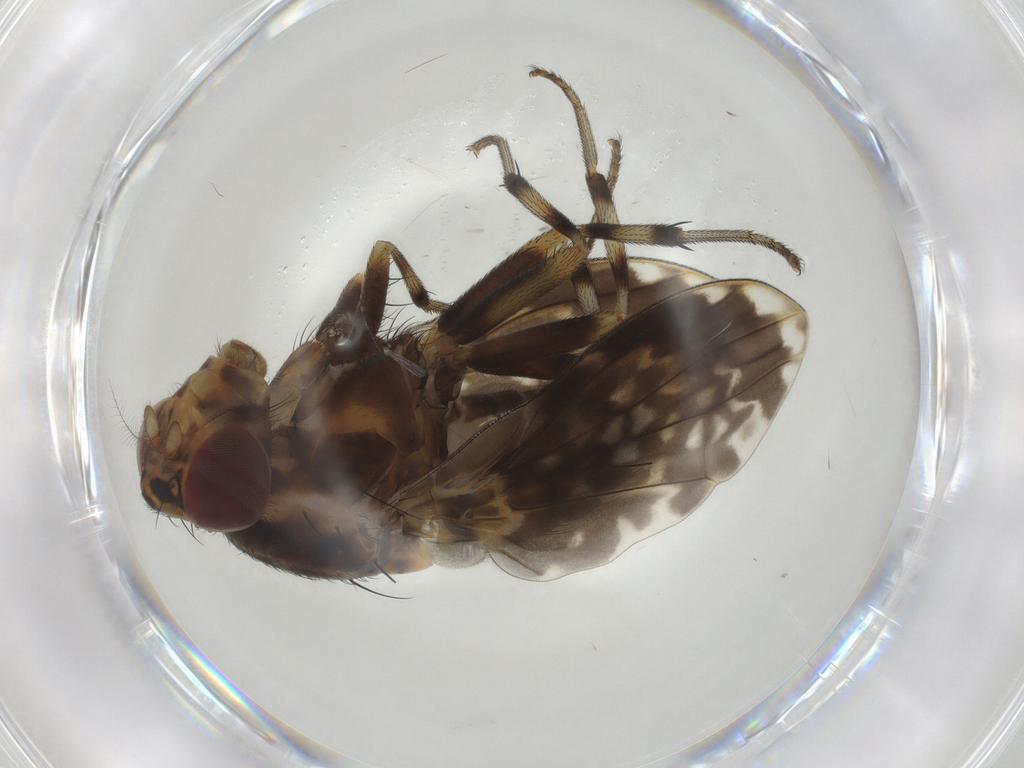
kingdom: Animalia
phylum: Arthropoda
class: Insecta
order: Diptera
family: Lauxaniidae
